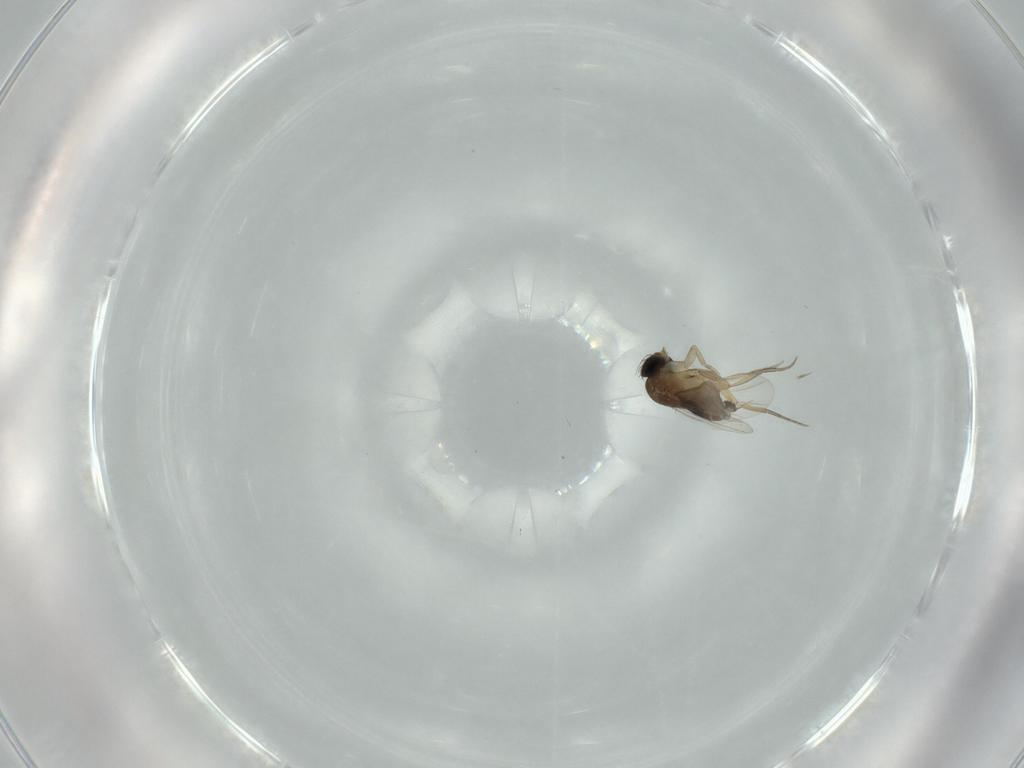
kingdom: Animalia
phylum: Arthropoda
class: Insecta
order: Diptera
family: Phoridae
